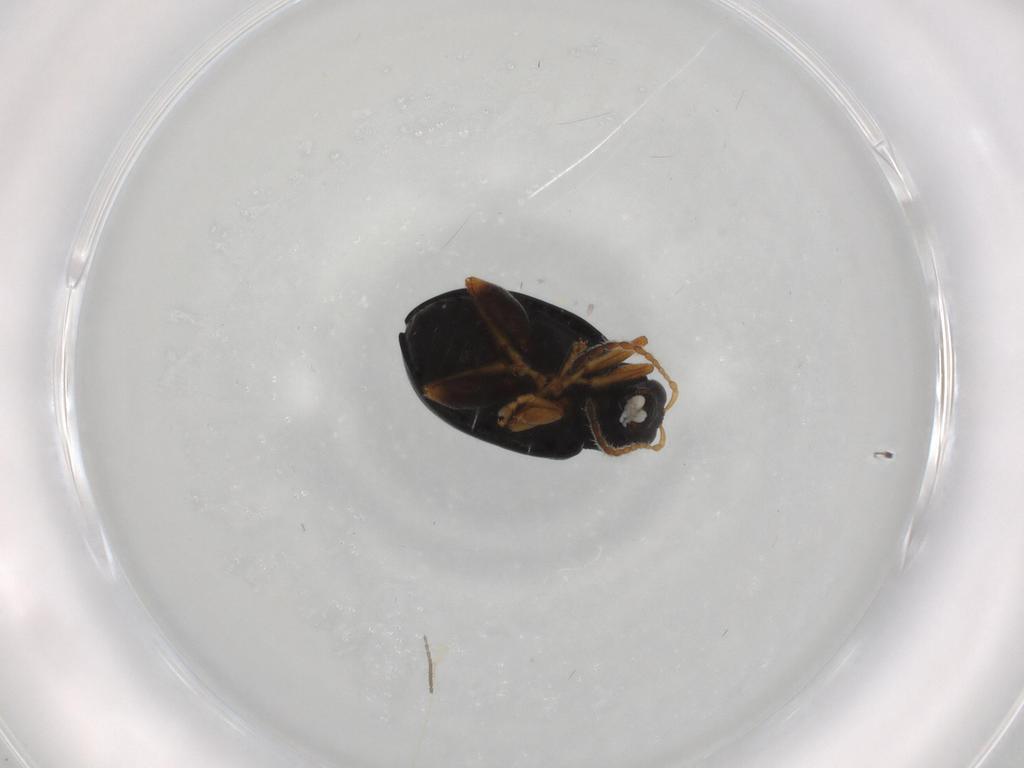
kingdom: Animalia
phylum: Arthropoda
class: Insecta
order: Coleoptera
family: Chrysomelidae
